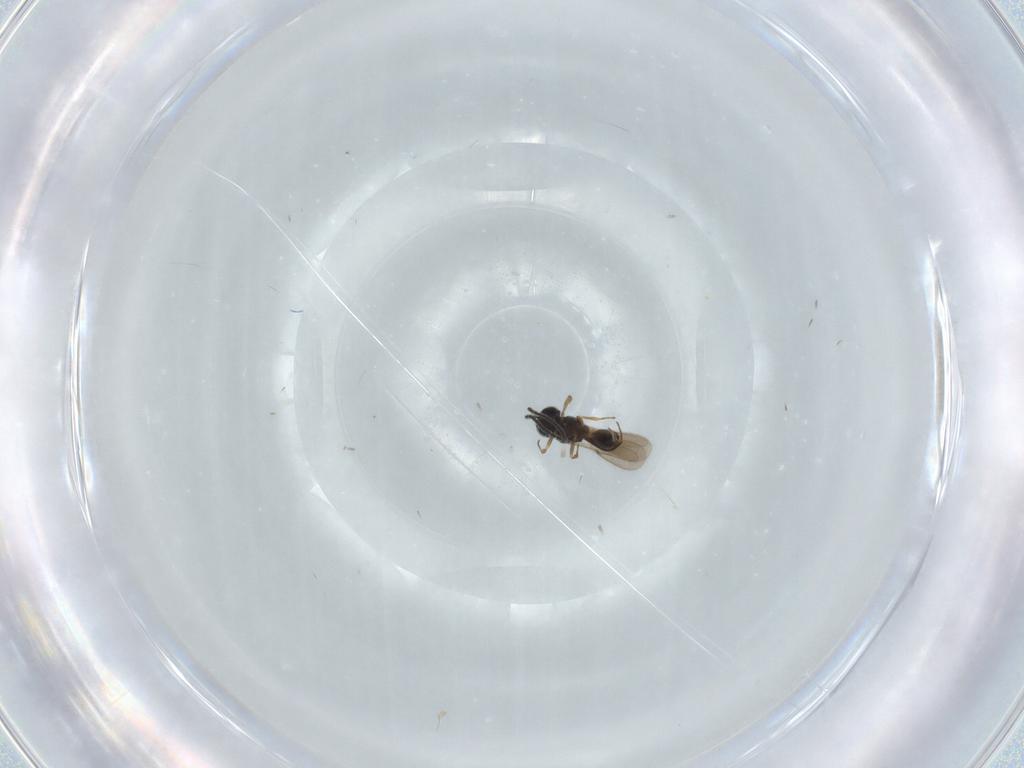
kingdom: Animalia
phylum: Arthropoda
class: Insecta
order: Hymenoptera
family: Scelionidae
